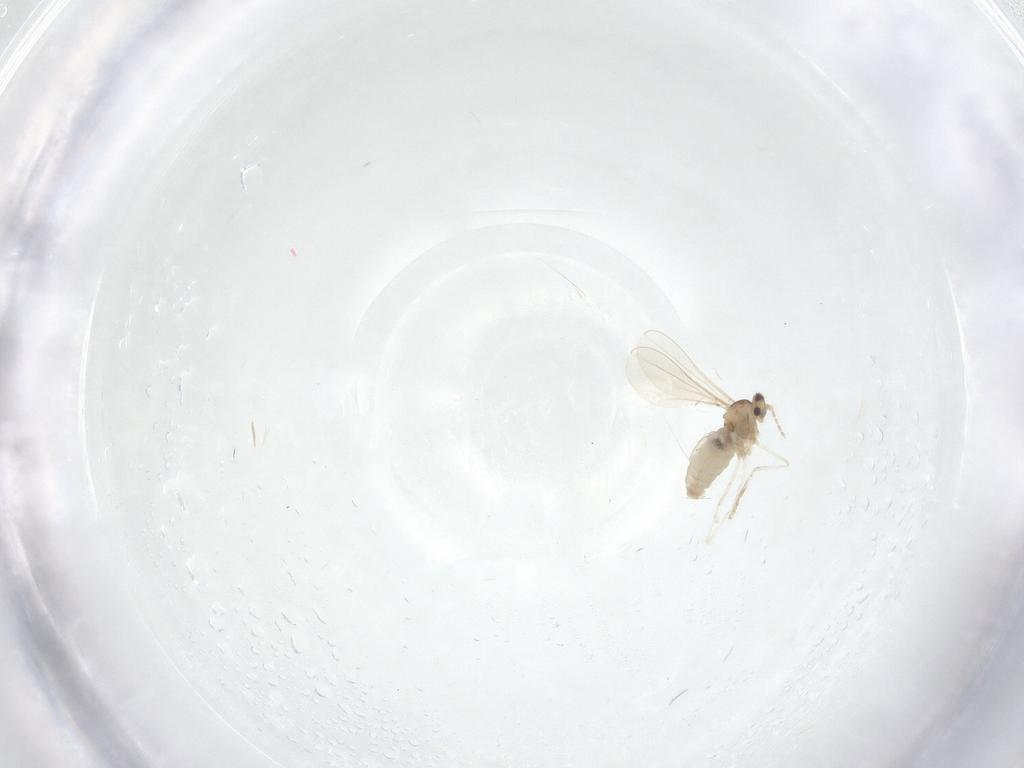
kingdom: Animalia
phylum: Arthropoda
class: Insecta
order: Diptera
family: Cecidomyiidae
